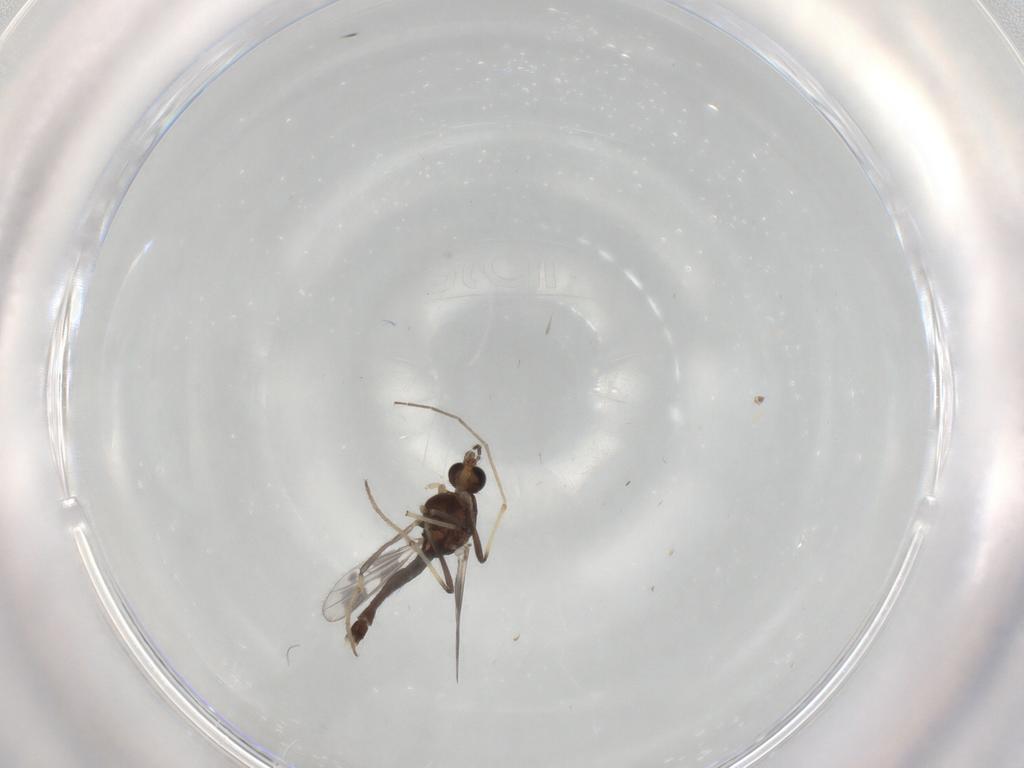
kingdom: Animalia
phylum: Arthropoda
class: Insecta
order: Diptera
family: Chironomidae
